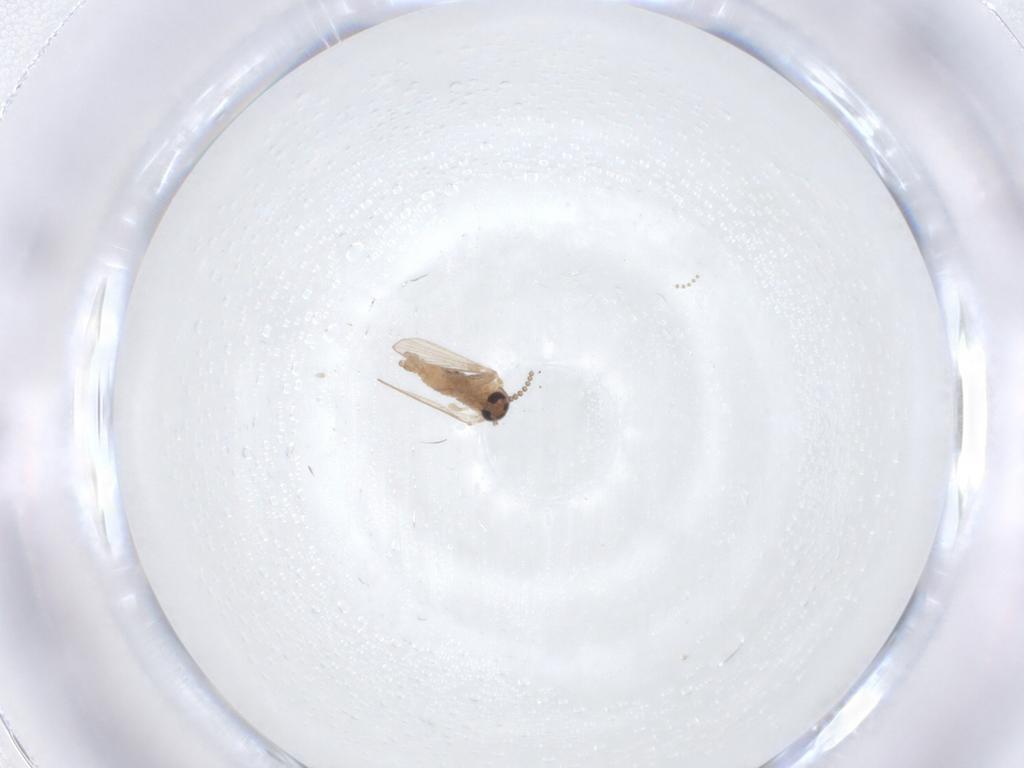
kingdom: Animalia
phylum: Arthropoda
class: Insecta
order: Diptera
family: Psychodidae
